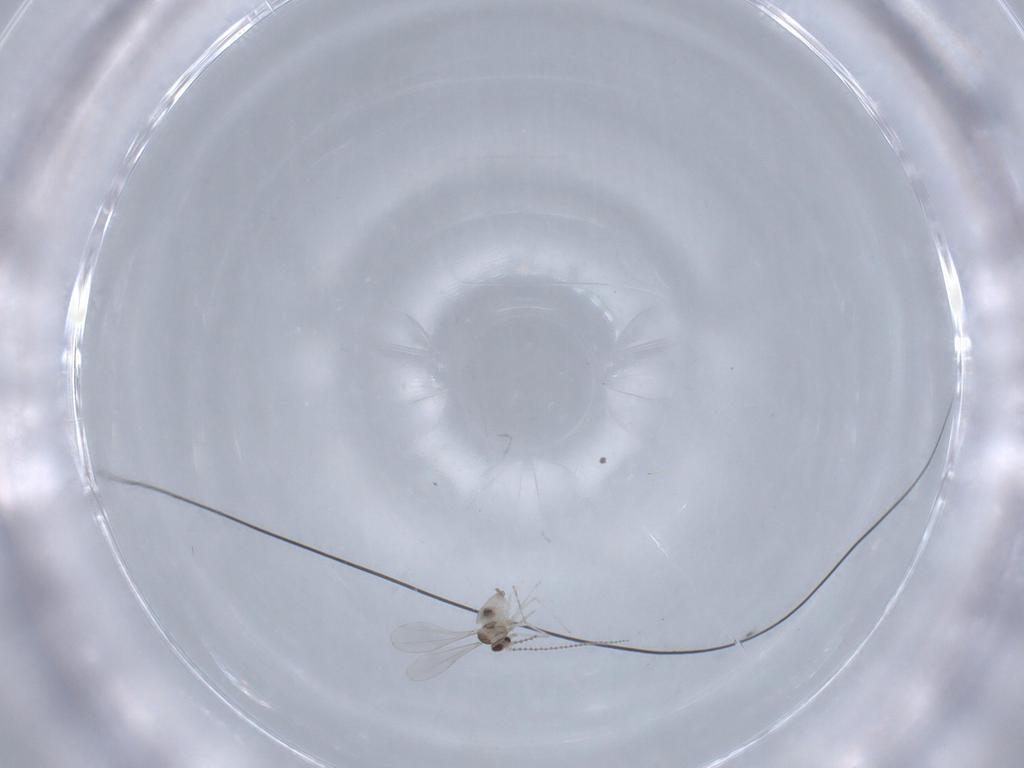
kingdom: Animalia
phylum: Arthropoda
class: Insecta
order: Diptera
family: Cecidomyiidae
